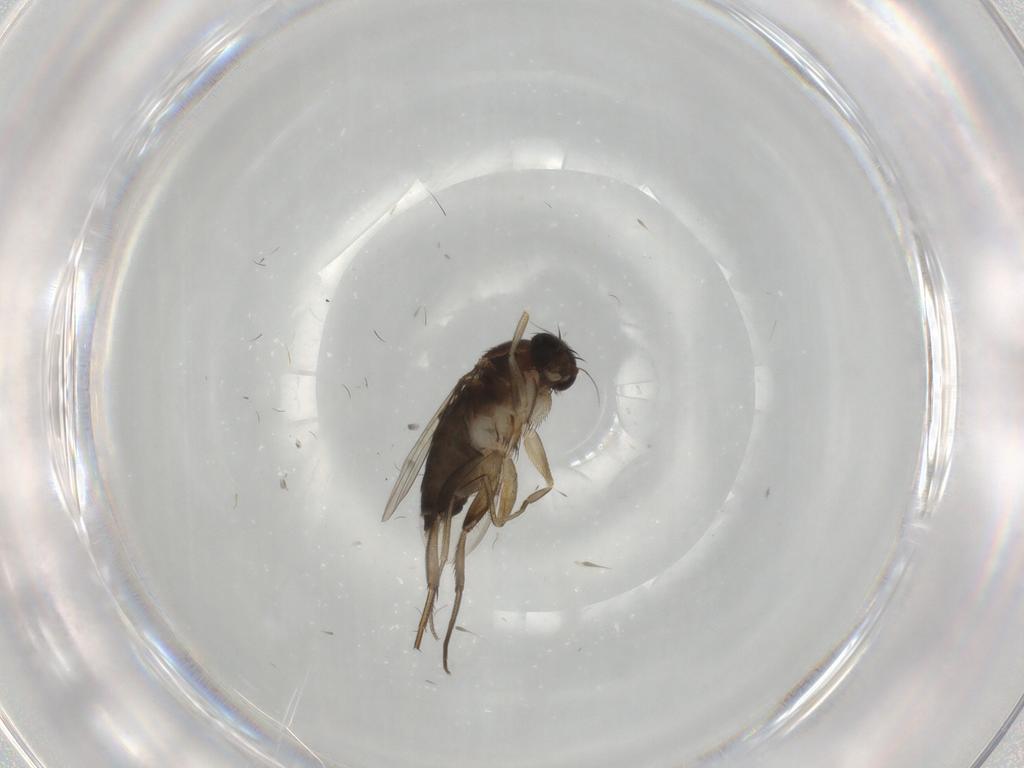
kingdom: Animalia
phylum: Arthropoda
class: Insecta
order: Diptera
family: Phoridae
